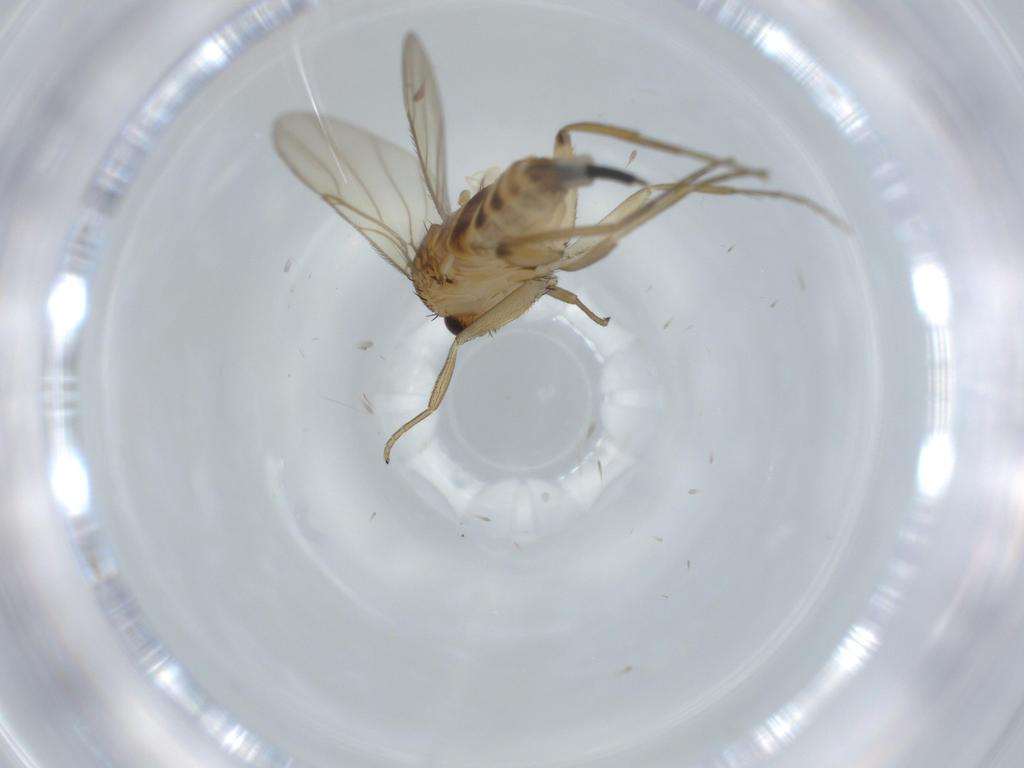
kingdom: Animalia
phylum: Arthropoda
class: Insecta
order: Diptera
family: Phoridae
